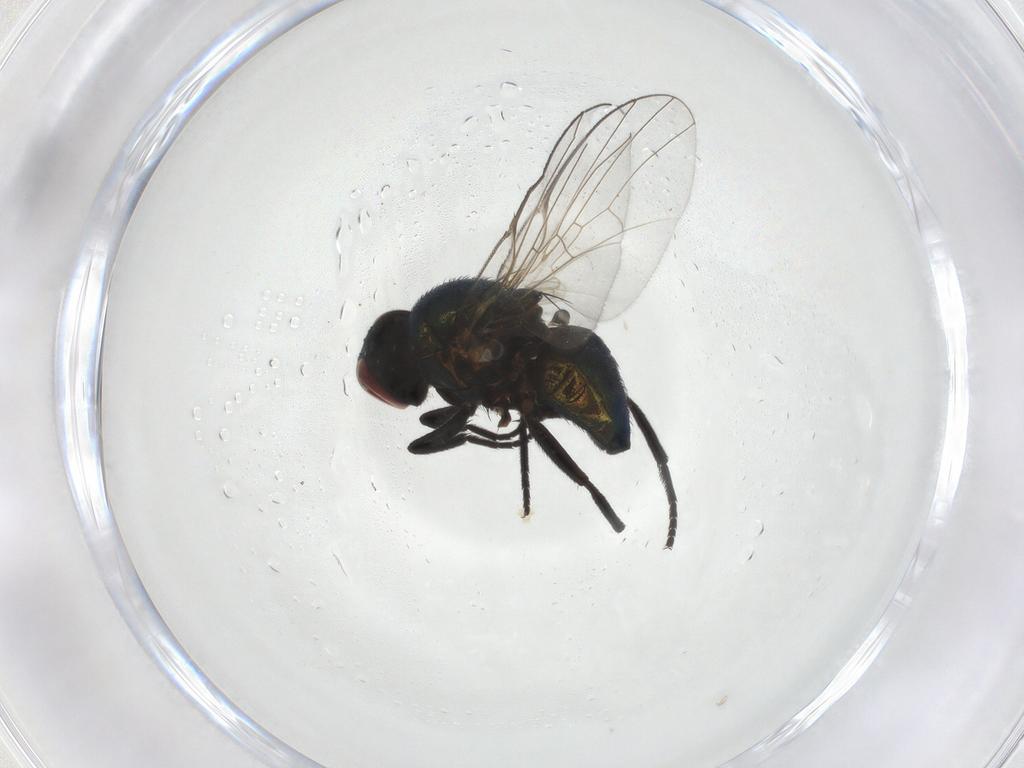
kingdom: Animalia
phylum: Arthropoda
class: Insecta
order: Diptera
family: Agromyzidae
